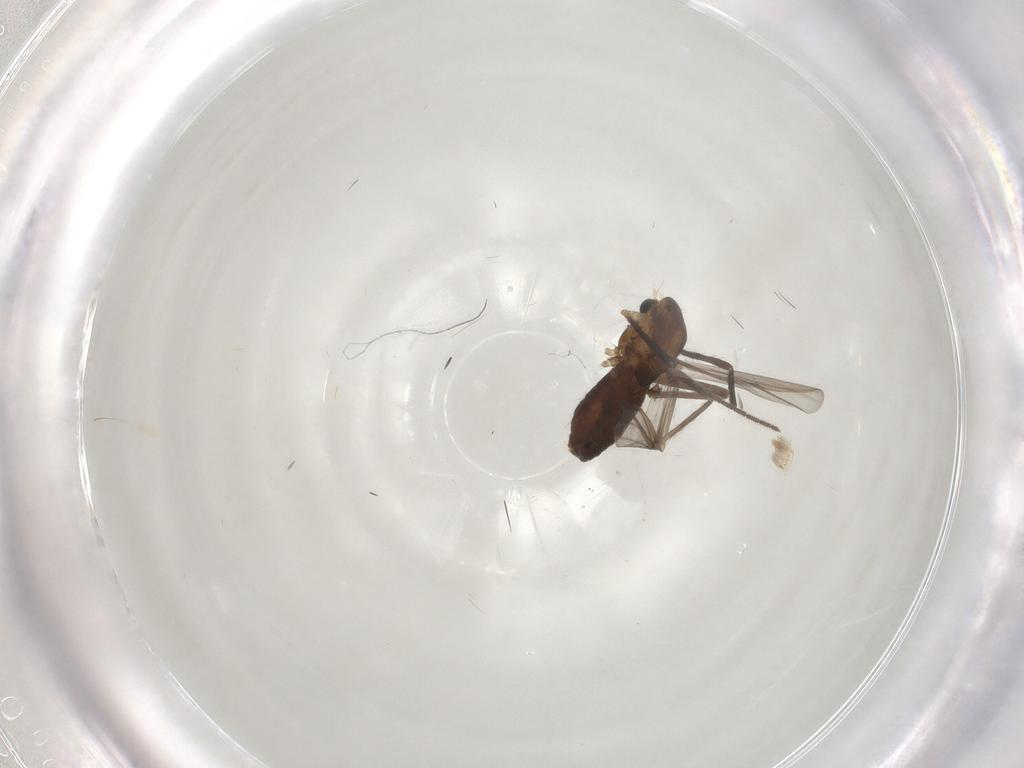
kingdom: Animalia
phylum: Arthropoda
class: Insecta
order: Diptera
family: Chironomidae
